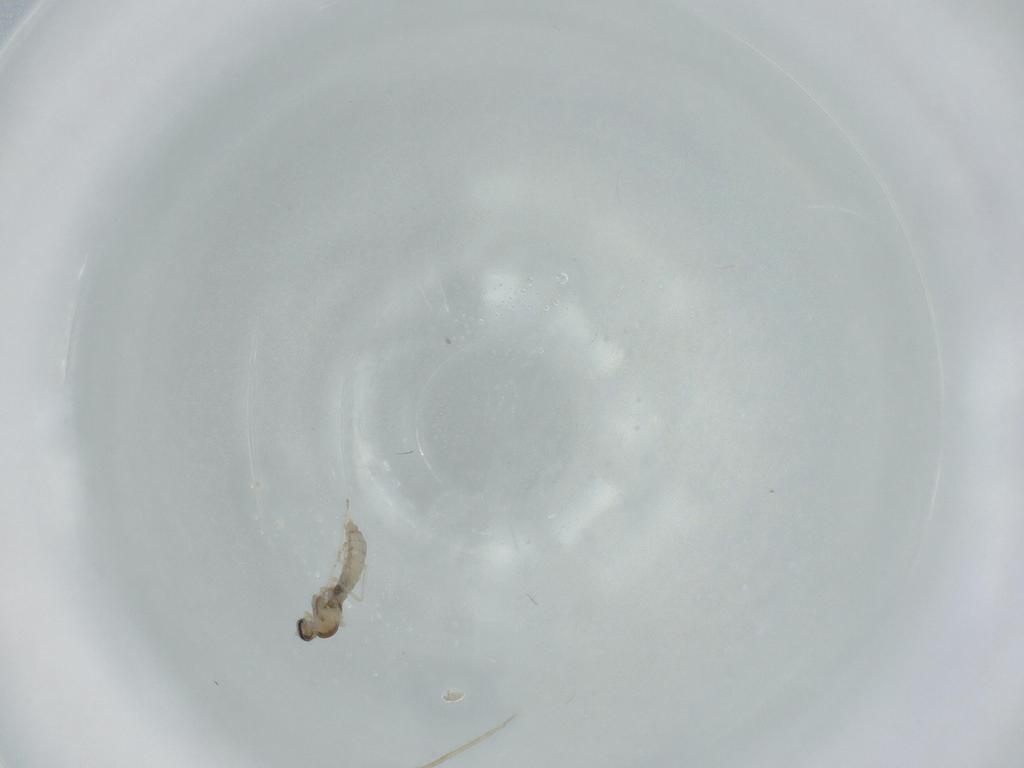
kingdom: Animalia
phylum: Arthropoda
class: Insecta
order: Diptera
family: Cecidomyiidae
